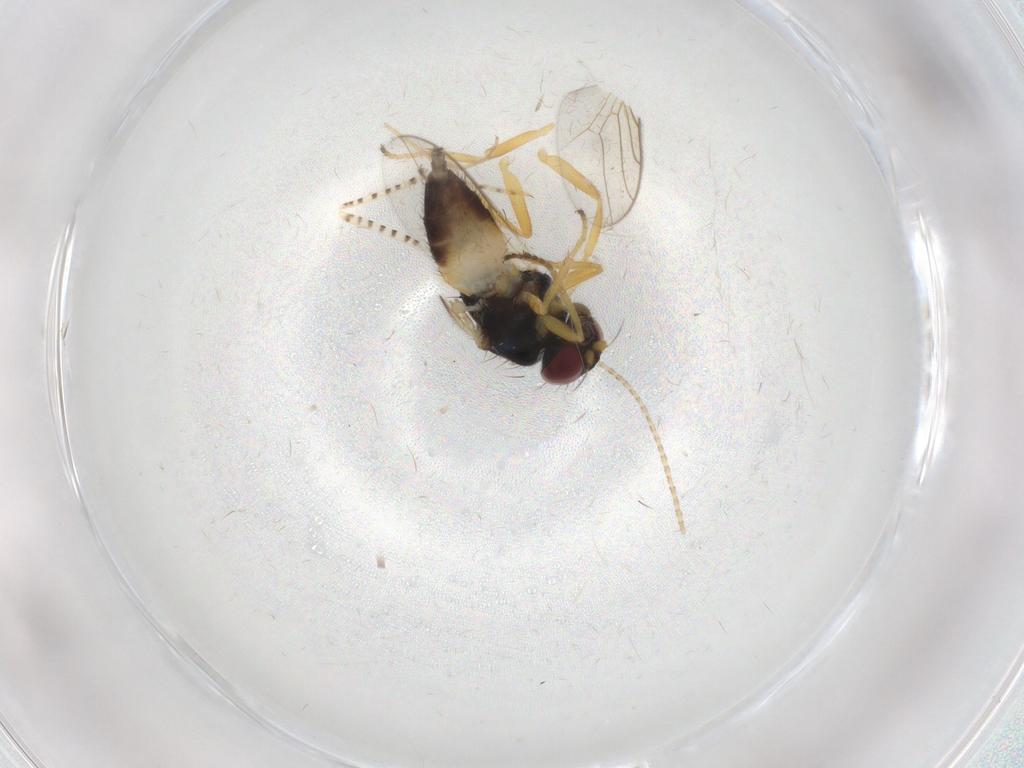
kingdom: Animalia
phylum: Arthropoda
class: Insecta
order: Diptera
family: Chloropidae
